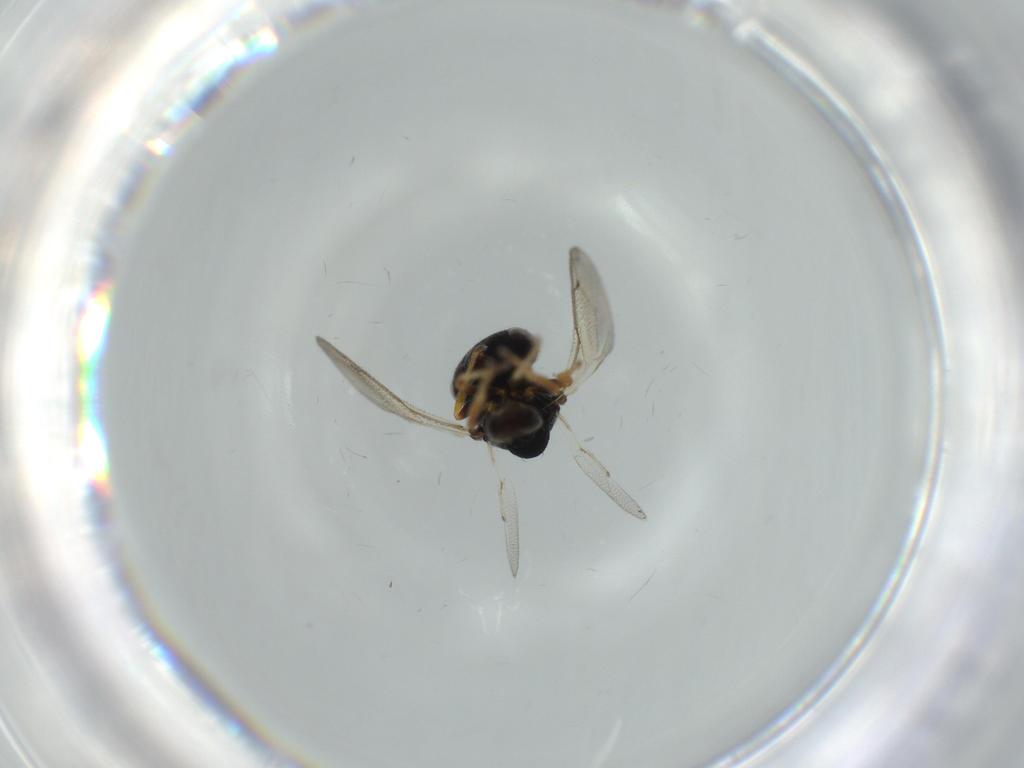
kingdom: Animalia
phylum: Arthropoda
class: Insecta
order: Hymenoptera
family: Pteromalidae
